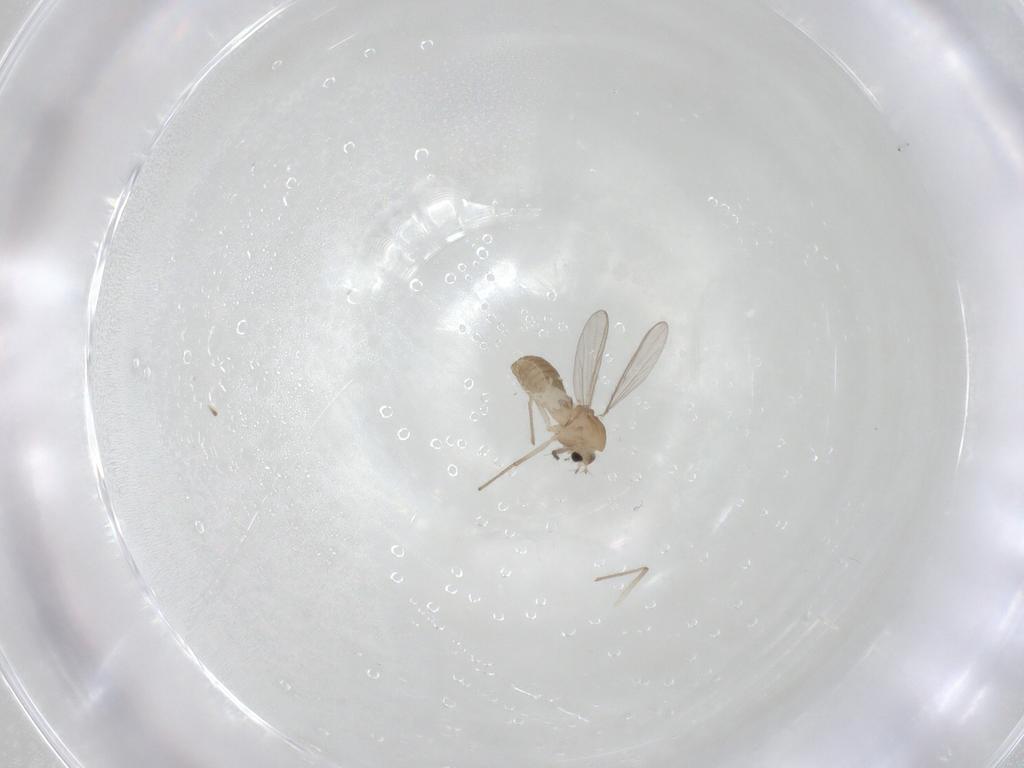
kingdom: Animalia
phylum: Arthropoda
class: Insecta
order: Diptera
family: Chironomidae
